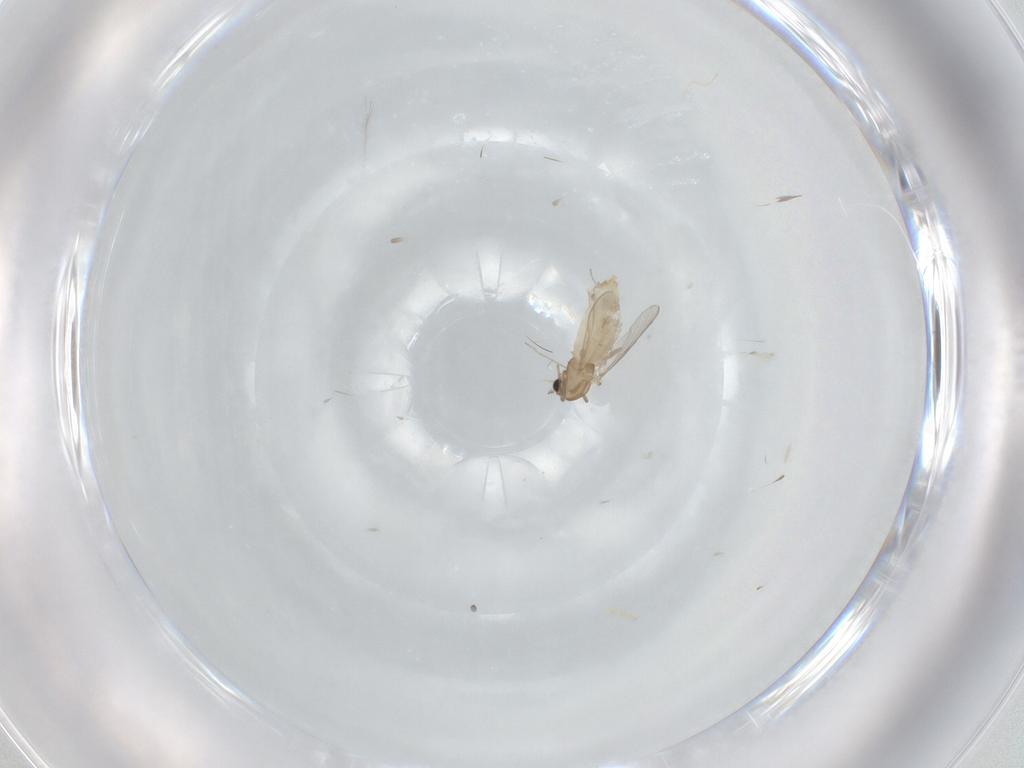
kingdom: Animalia
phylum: Arthropoda
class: Insecta
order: Diptera
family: Chironomidae
